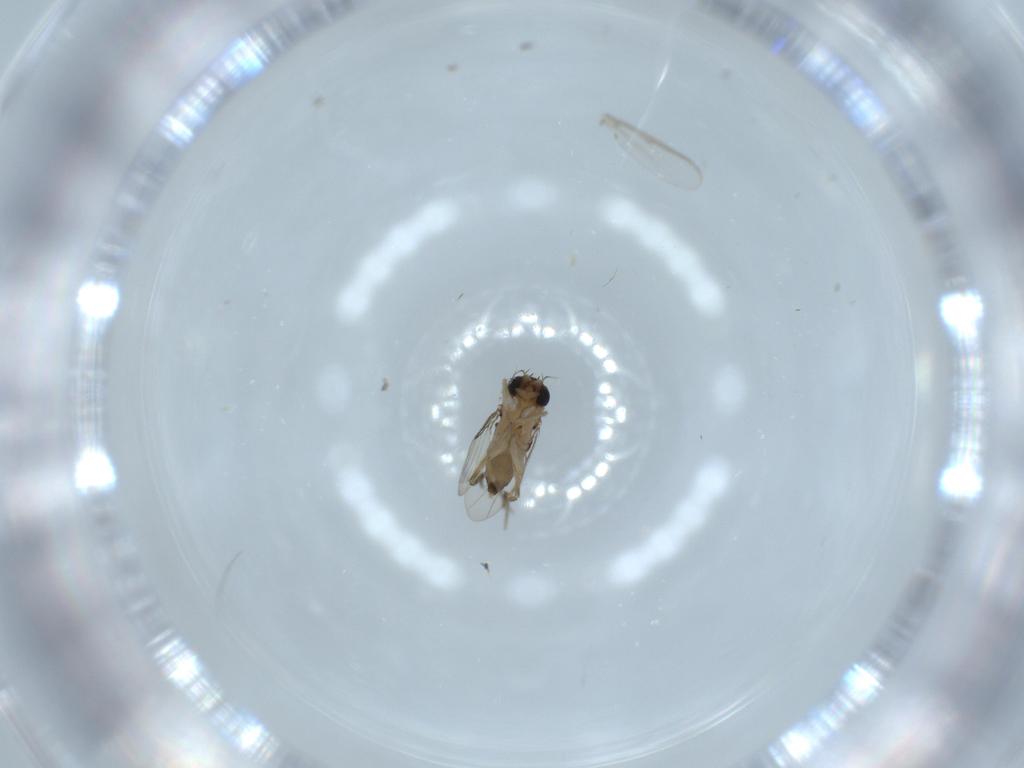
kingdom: Animalia
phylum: Arthropoda
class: Insecta
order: Diptera
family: Phoridae
